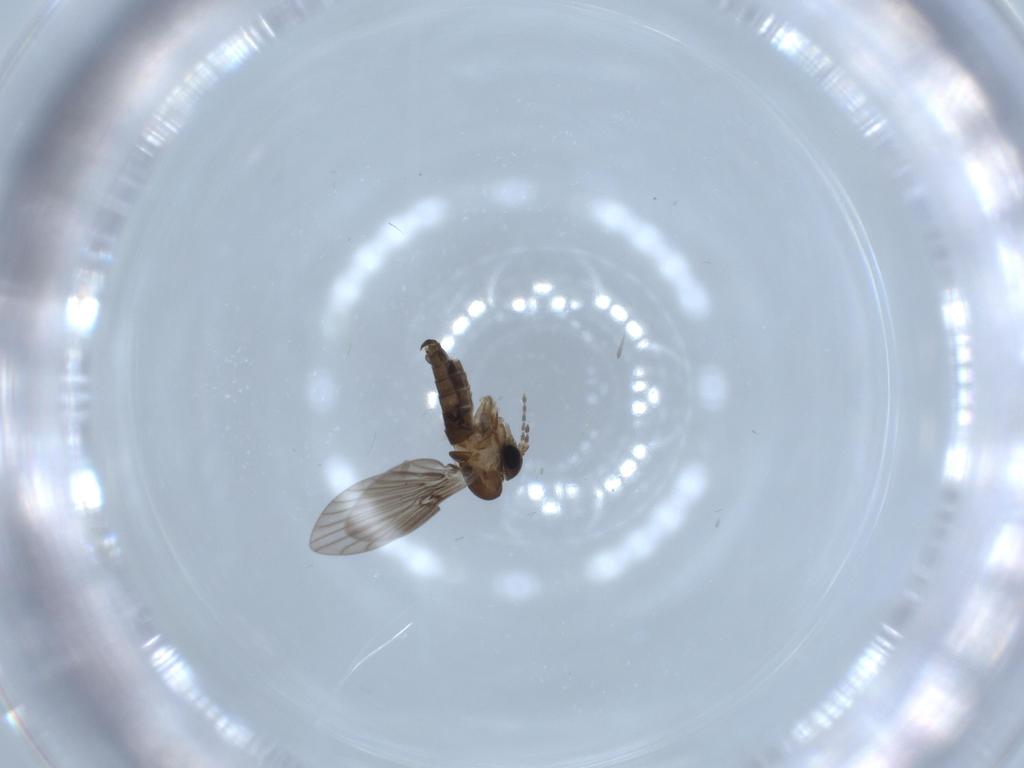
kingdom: Animalia
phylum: Arthropoda
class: Insecta
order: Diptera
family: Psychodidae
